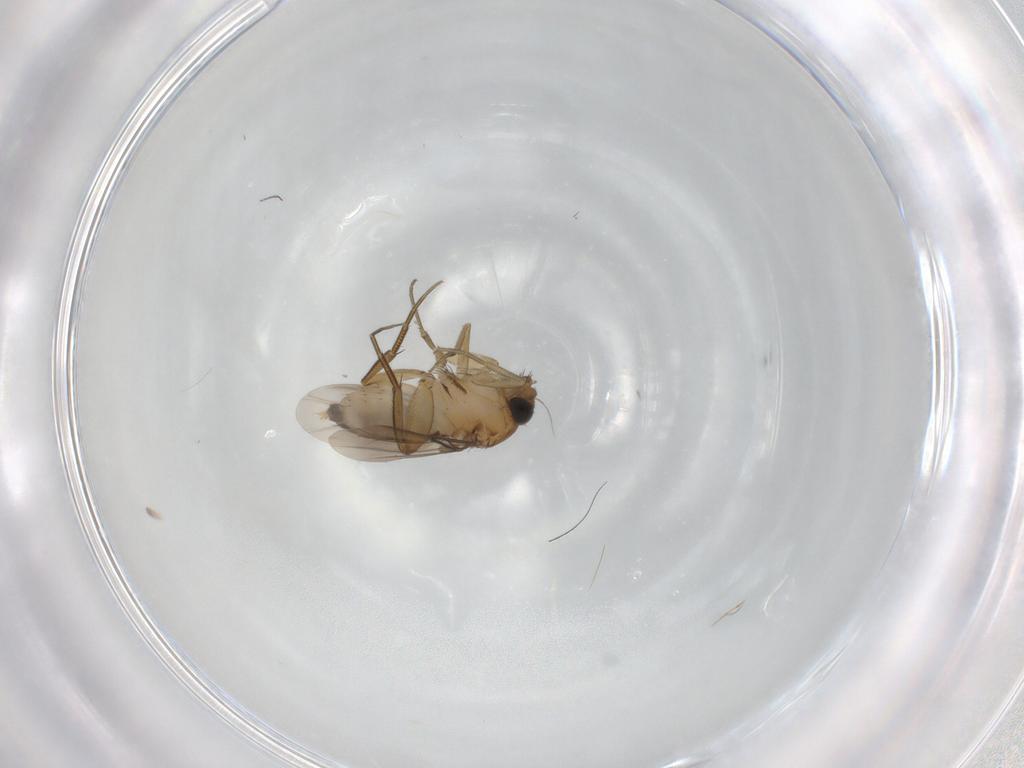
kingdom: Animalia
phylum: Arthropoda
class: Insecta
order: Diptera
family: Phoridae
